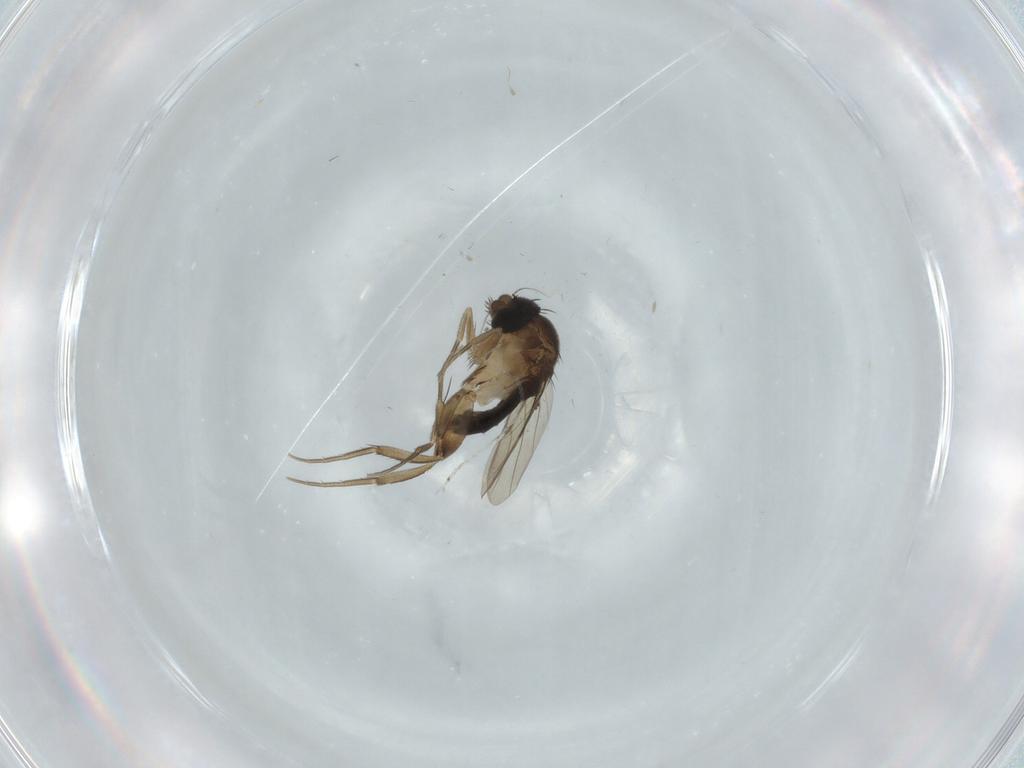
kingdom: Animalia
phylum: Arthropoda
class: Insecta
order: Diptera
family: Phoridae
